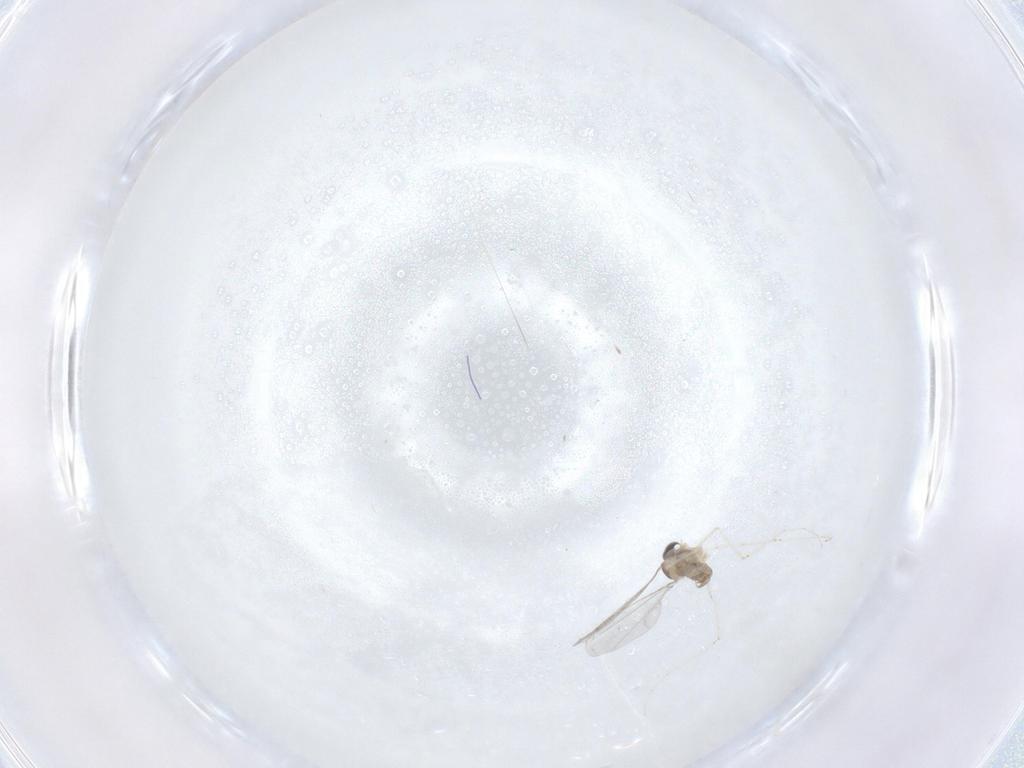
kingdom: Animalia
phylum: Arthropoda
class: Insecta
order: Diptera
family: Cecidomyiidae
